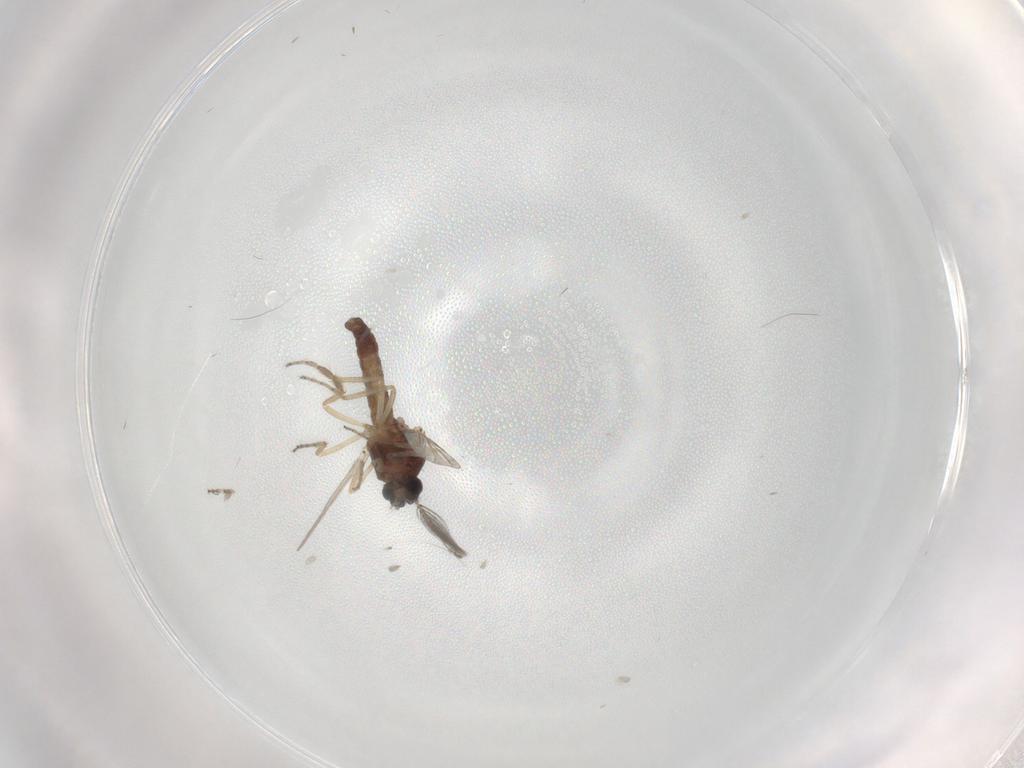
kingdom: Animalia
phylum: Arthropoda
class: Insecta
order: Diptera
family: Ceratopogonidae
